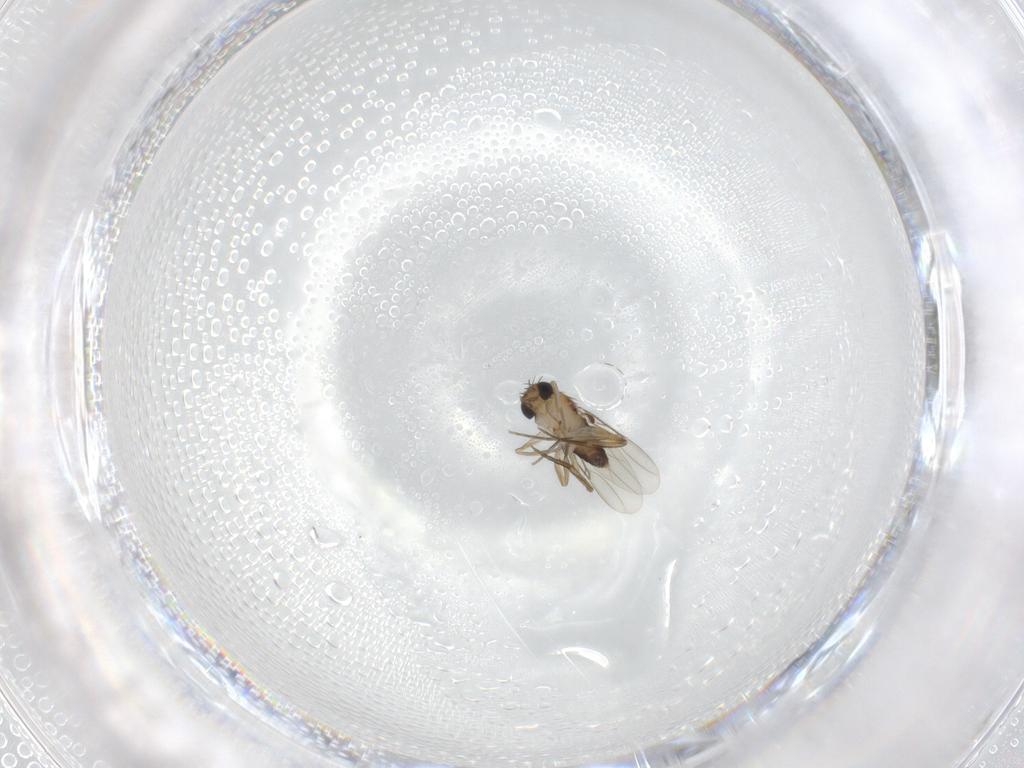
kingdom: Animalia
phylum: Arthropoda
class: Insecta
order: Diptera
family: Phoridae
